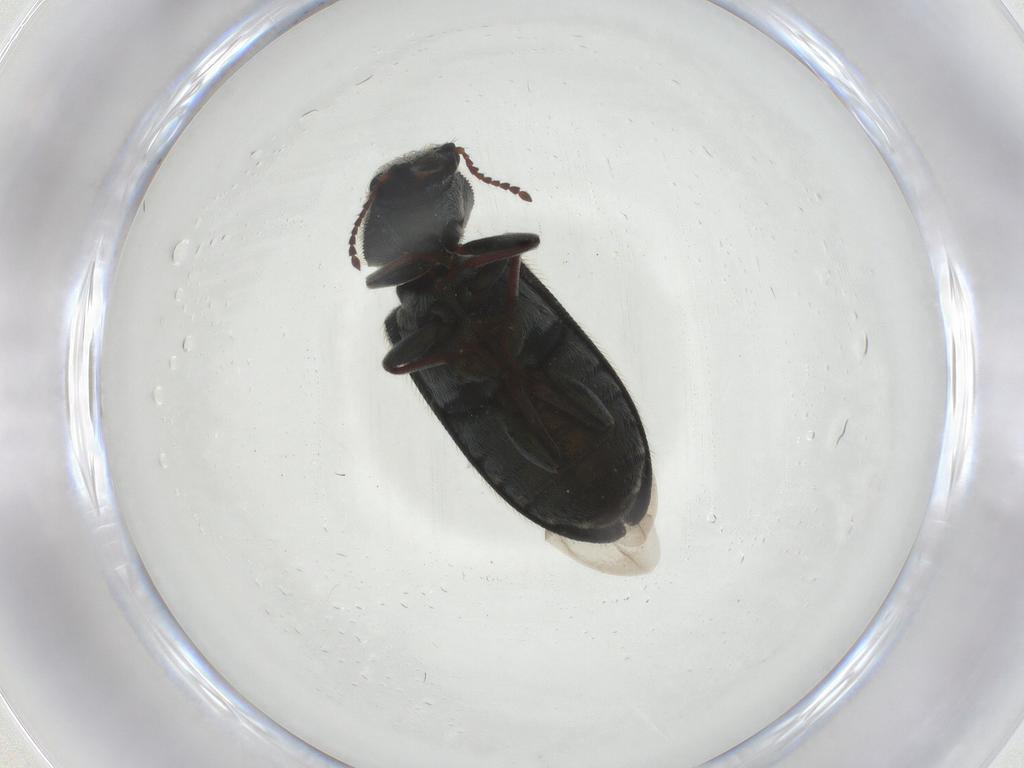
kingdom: Animalia
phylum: Arthropoda
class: Insecta
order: Coleoptera
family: Melyridae
